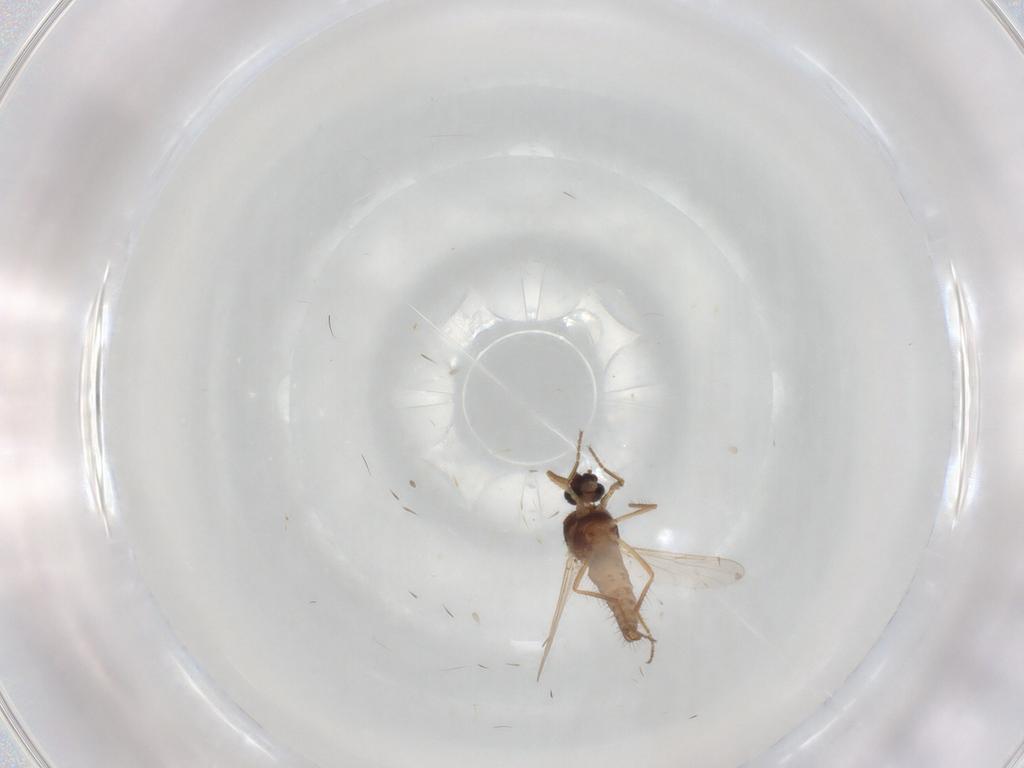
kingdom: Animalia
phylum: Arthropoda
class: Insecta
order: Diptera
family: Ceratopogonidae
